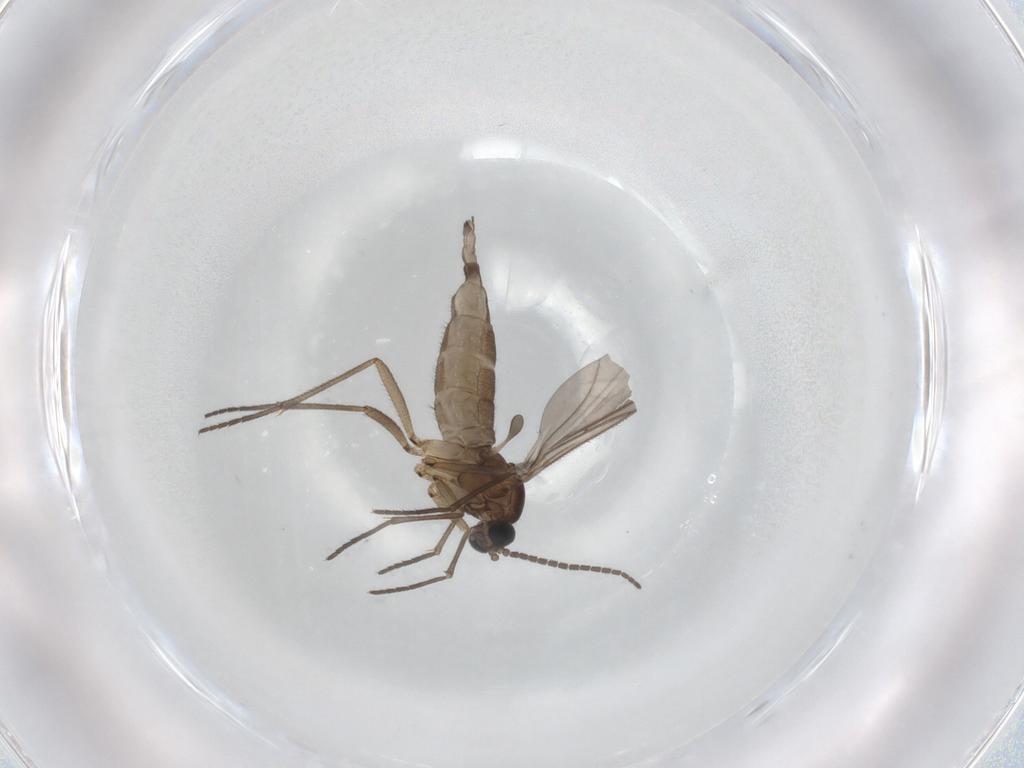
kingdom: Animalia
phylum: Arthropoda
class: Insecta
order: Diptera
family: Sciaridae
